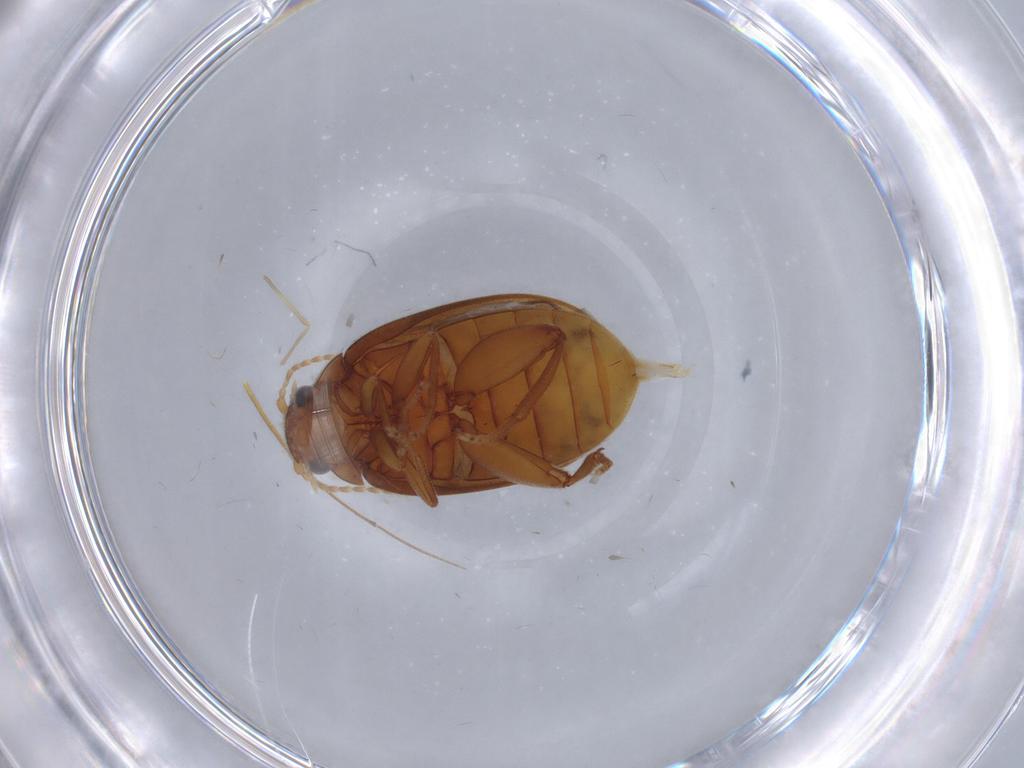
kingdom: Animalia
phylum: Arthropoda
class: Insecta
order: Coleoptera
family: Scirtidae
